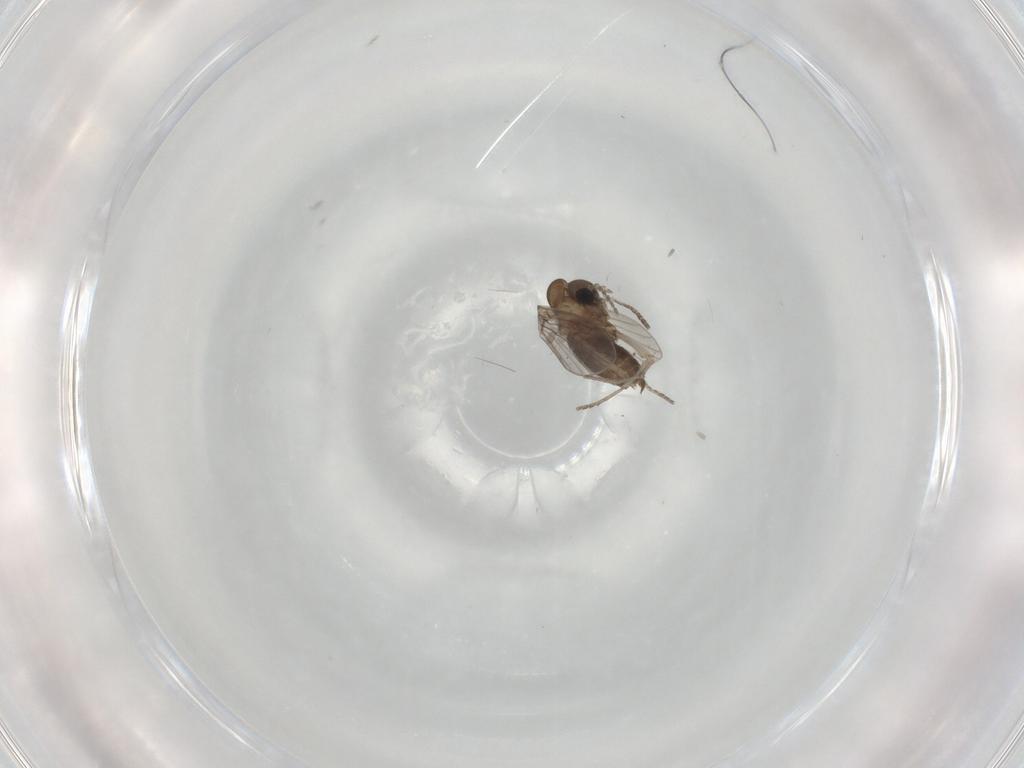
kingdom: Animalia
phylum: Arthropoda
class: Insecta
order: Diptera
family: Cecidomyiidae
